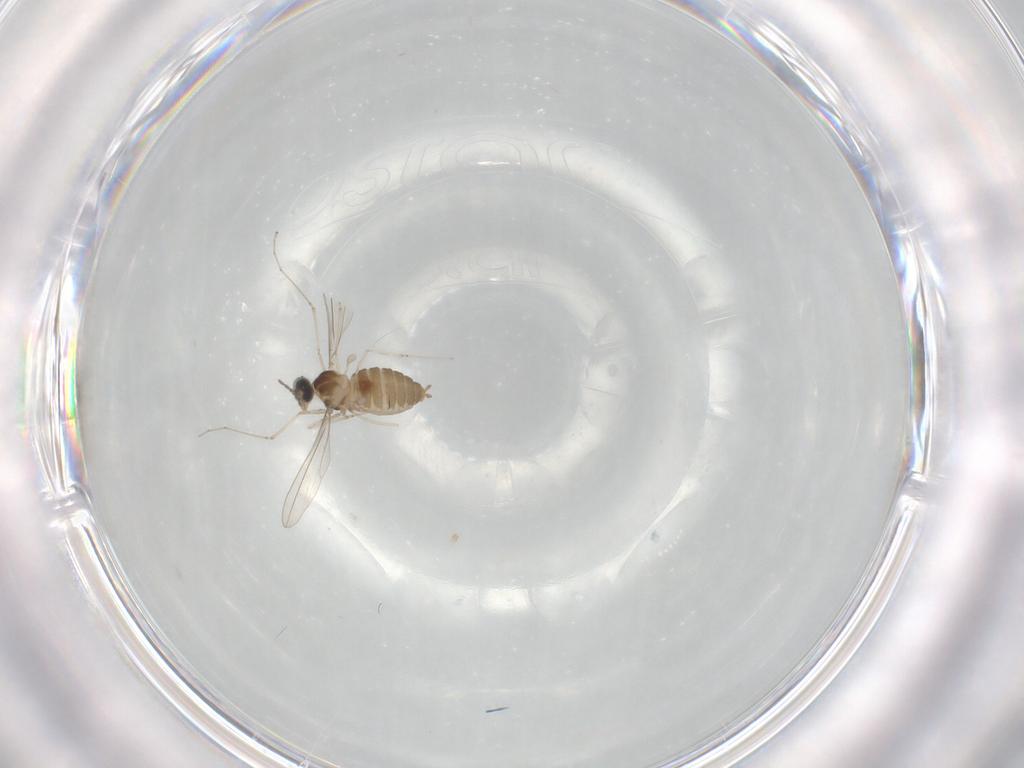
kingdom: Animalia
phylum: Arthropoda
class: Insecta
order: Diptera
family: Cecidomyiidae
